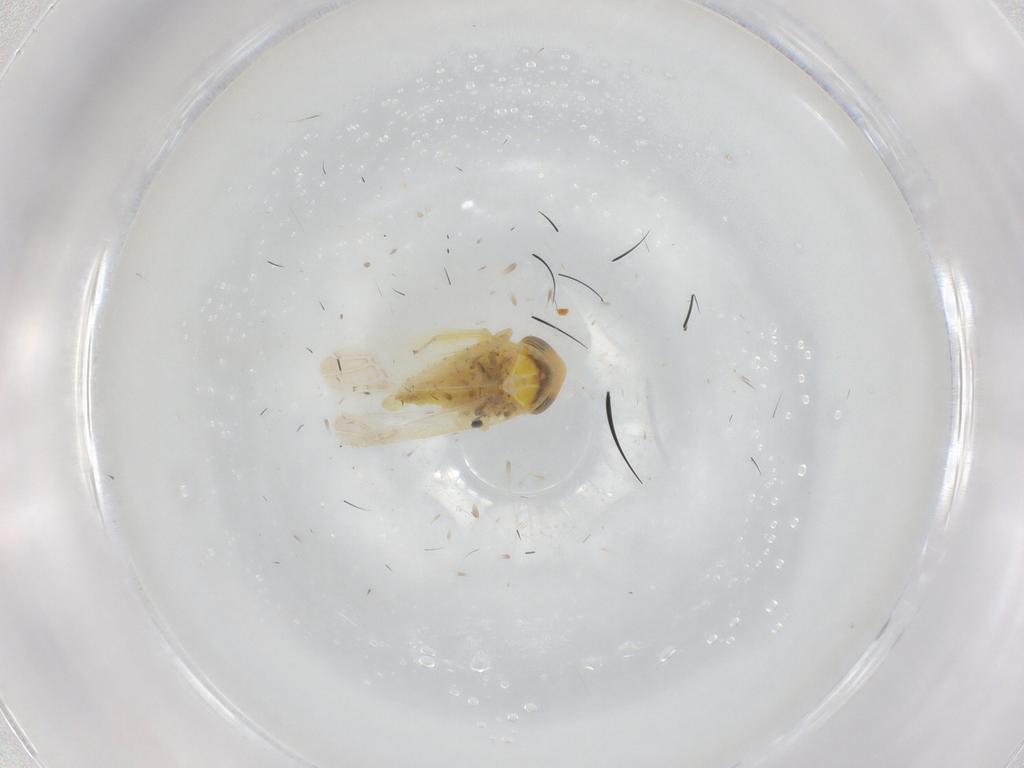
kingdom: Animalia
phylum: Arthropoda
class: Insecta
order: Hemiptera
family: Cicadellidae
